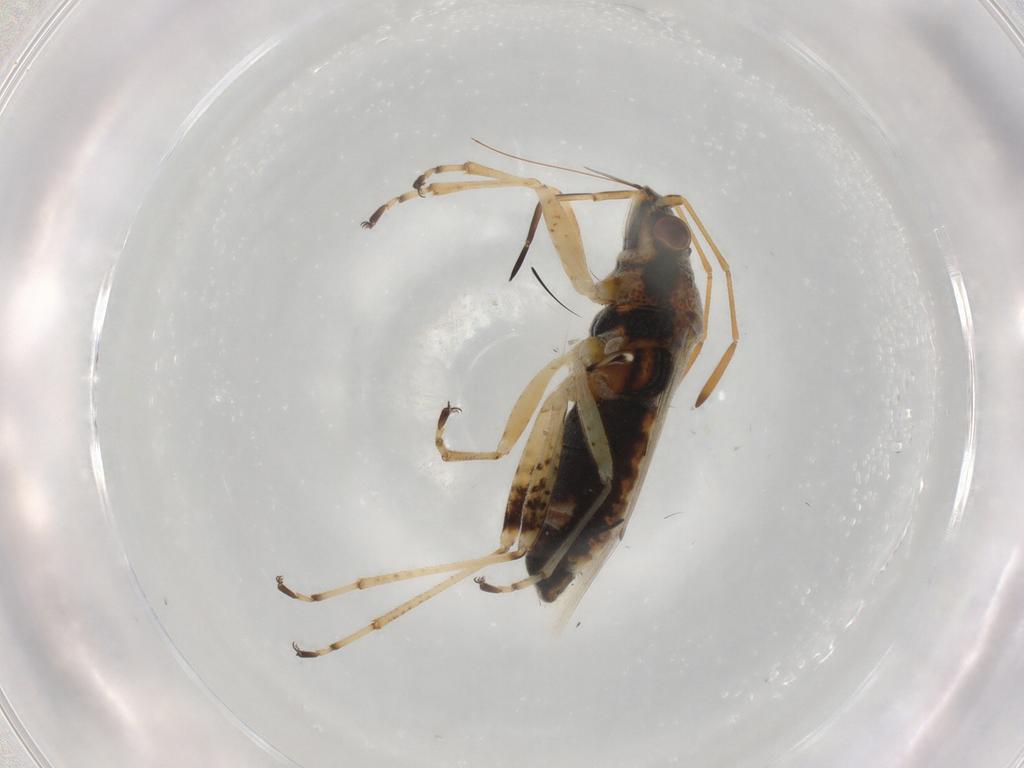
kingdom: Animalia
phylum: Arthropoda
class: Insecta
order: Hemiptera
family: Lygaeidae
